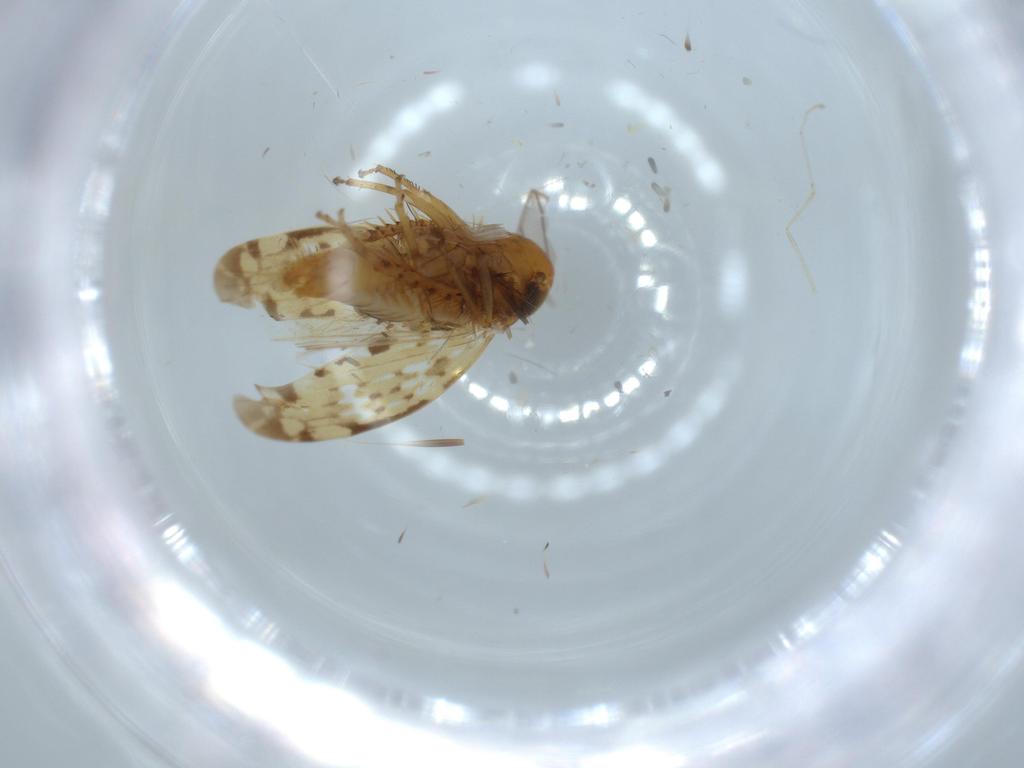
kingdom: Animalia
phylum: Arthropoda
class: Insecta
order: Hemiptera
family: Cicadellidae
